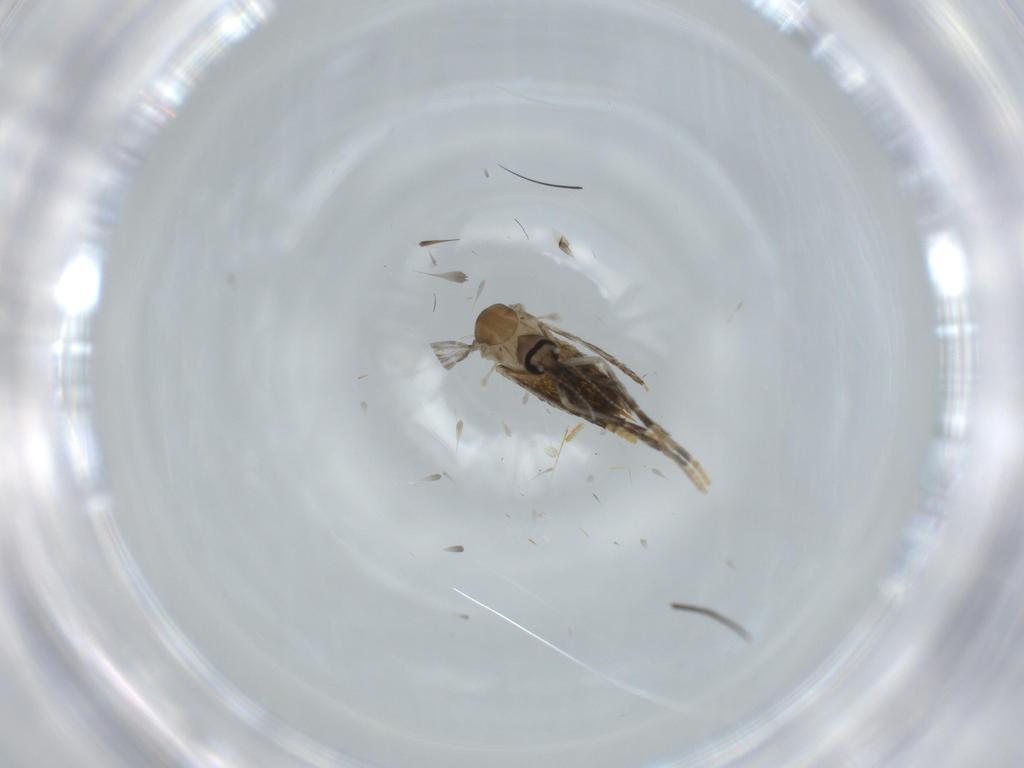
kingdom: Animalia
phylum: Arthropoda
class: Insecta
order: Diptera
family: Psychodidae
